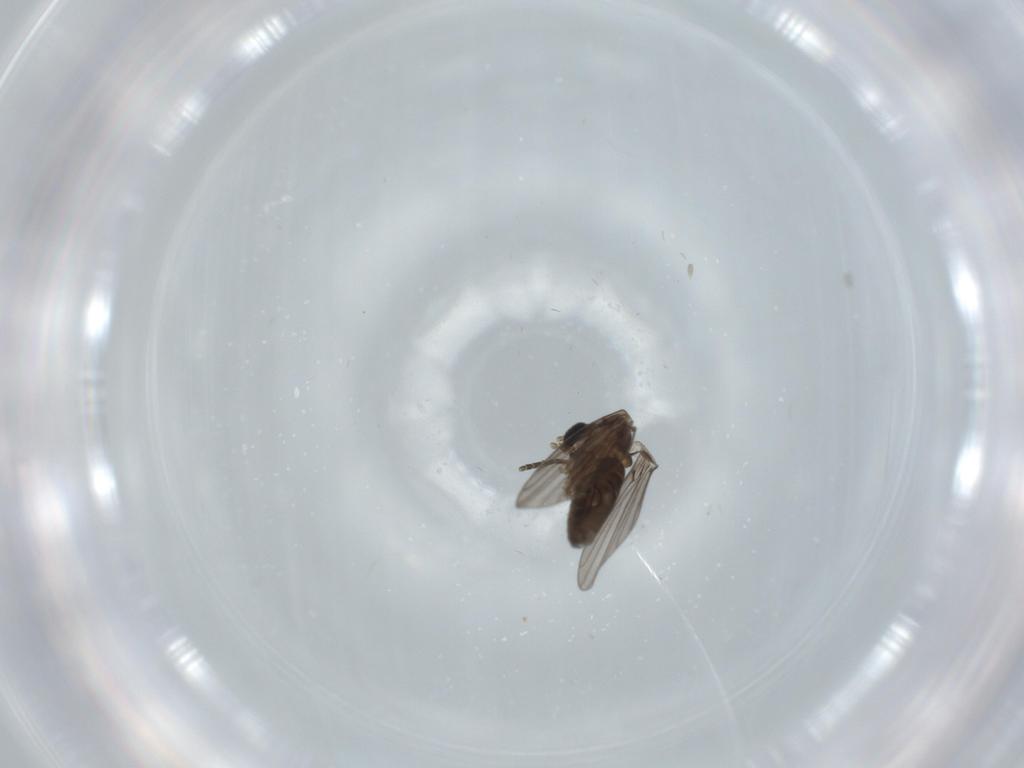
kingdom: Animalia
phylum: Arthropoda
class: Insecta
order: Diptera
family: Psychodidae
